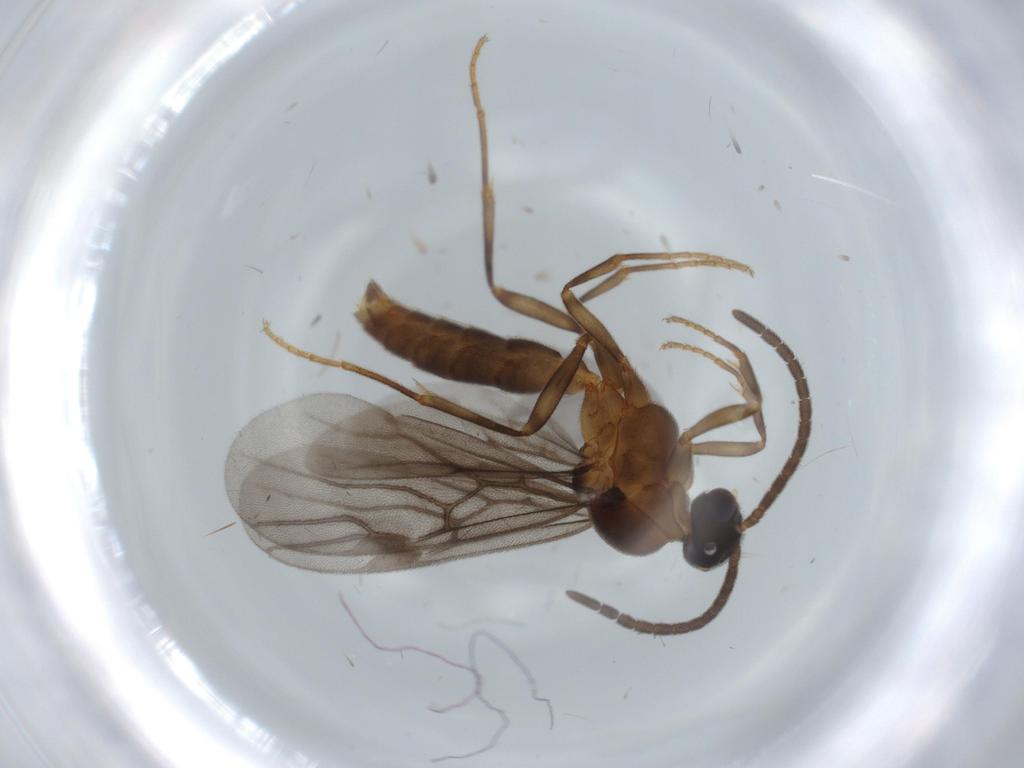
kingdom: Animalia
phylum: Arthropoda
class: Insecta
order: Hymenoptera
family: Formicidae
